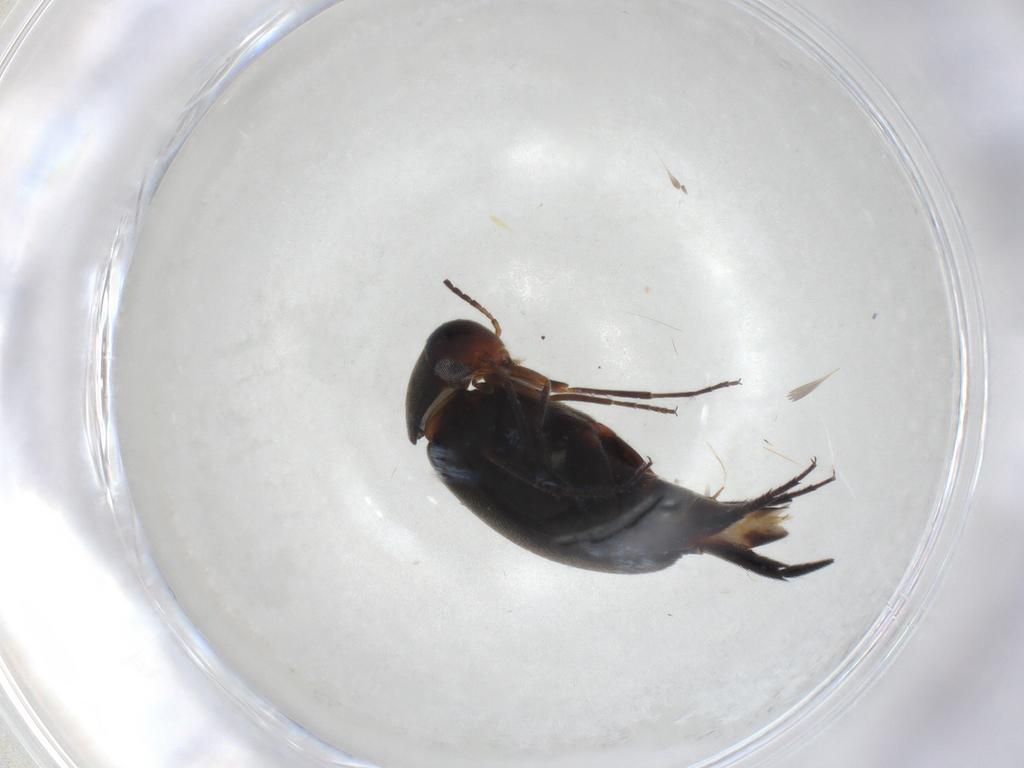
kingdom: Animalia
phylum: Arthropoda
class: Insecta
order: Coleoptera
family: Mordellidae
